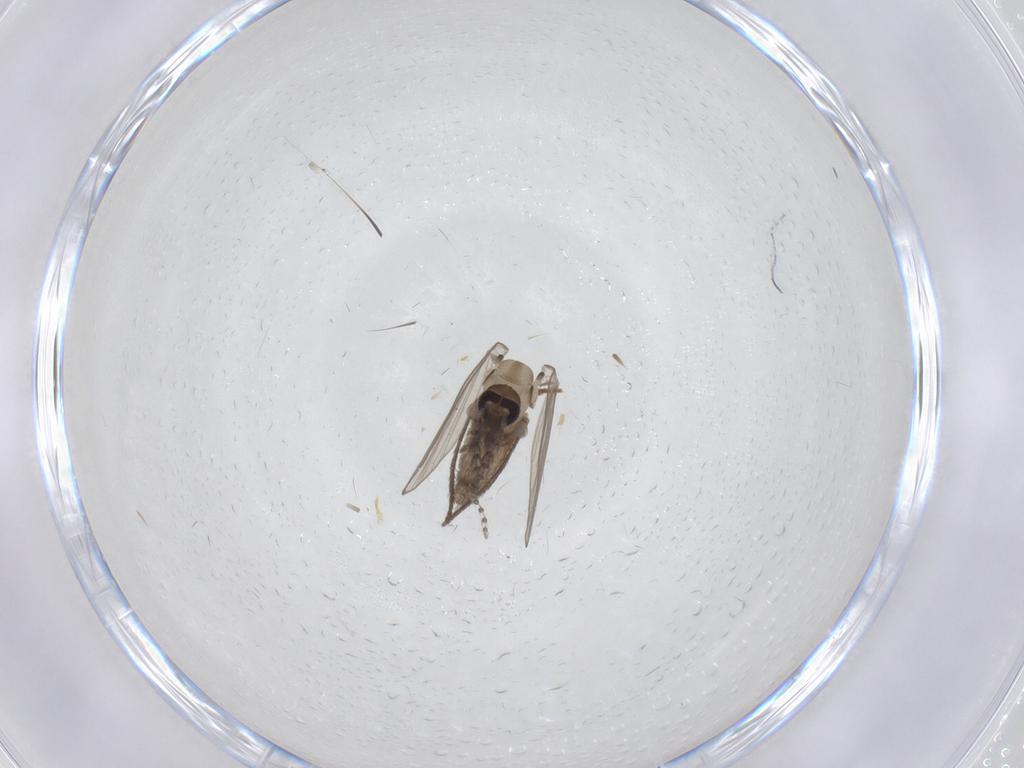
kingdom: Animalia
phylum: Arthropoda
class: Insecta
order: Diptera
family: Psychodidae
